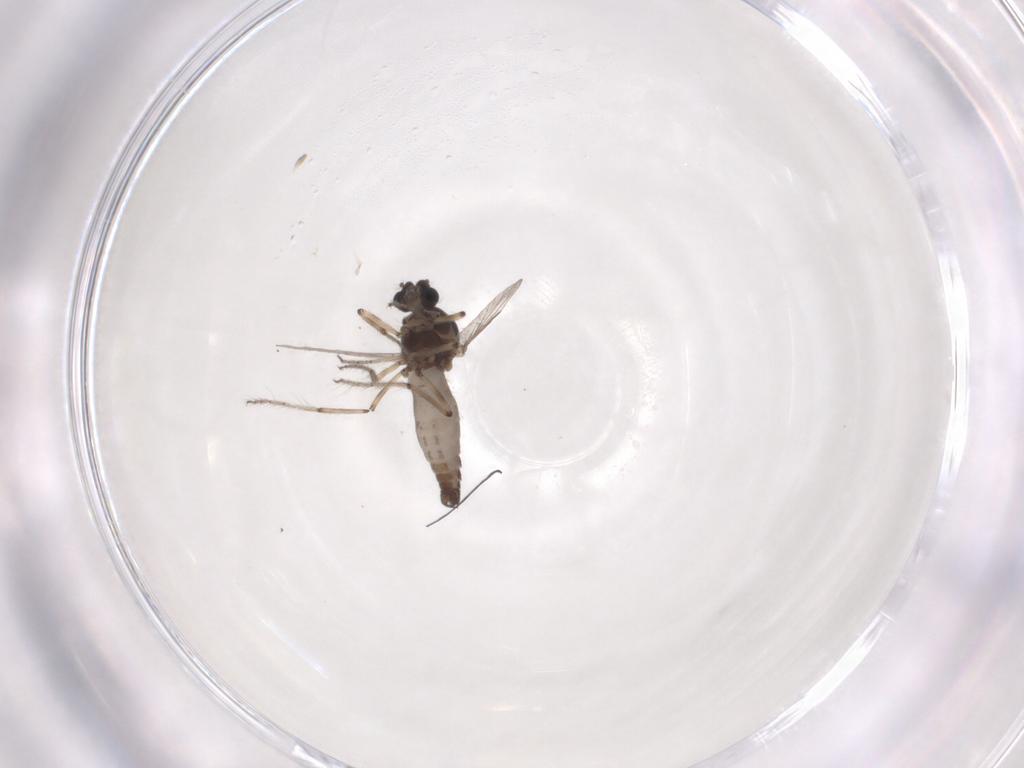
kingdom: Animalia
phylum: Arthropoda
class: Insecta
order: Diptera
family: Ceratopogonidae
